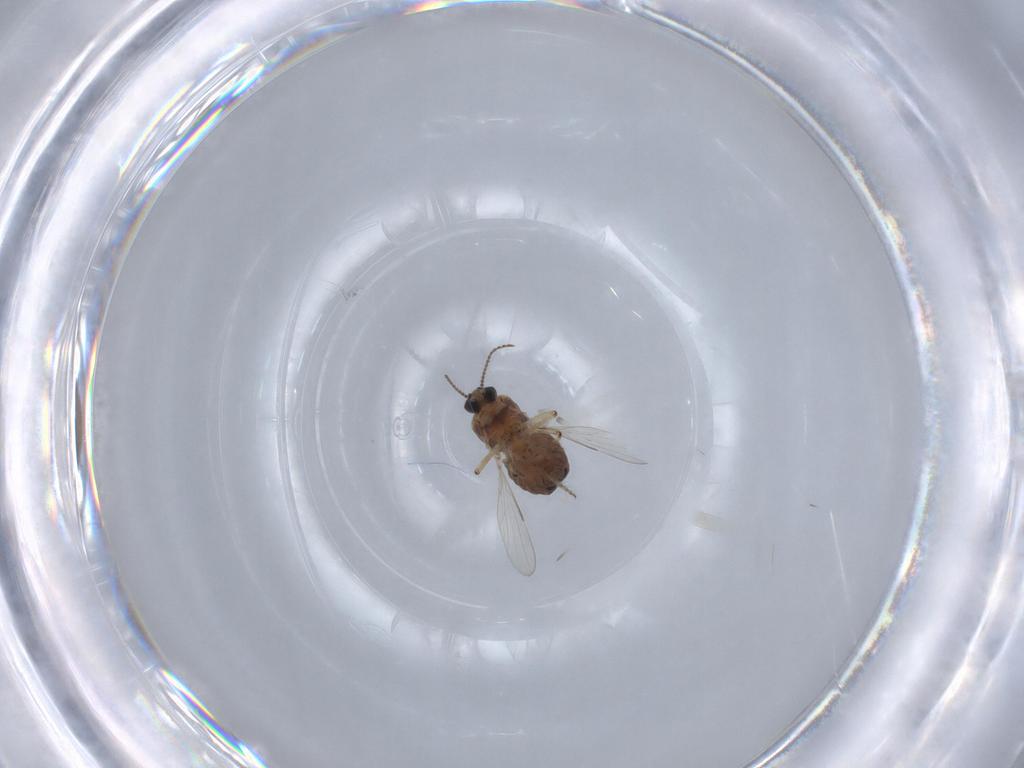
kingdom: Animalia
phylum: Arthropoda
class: Insecta
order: Diptera
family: Ceratopogonidae
